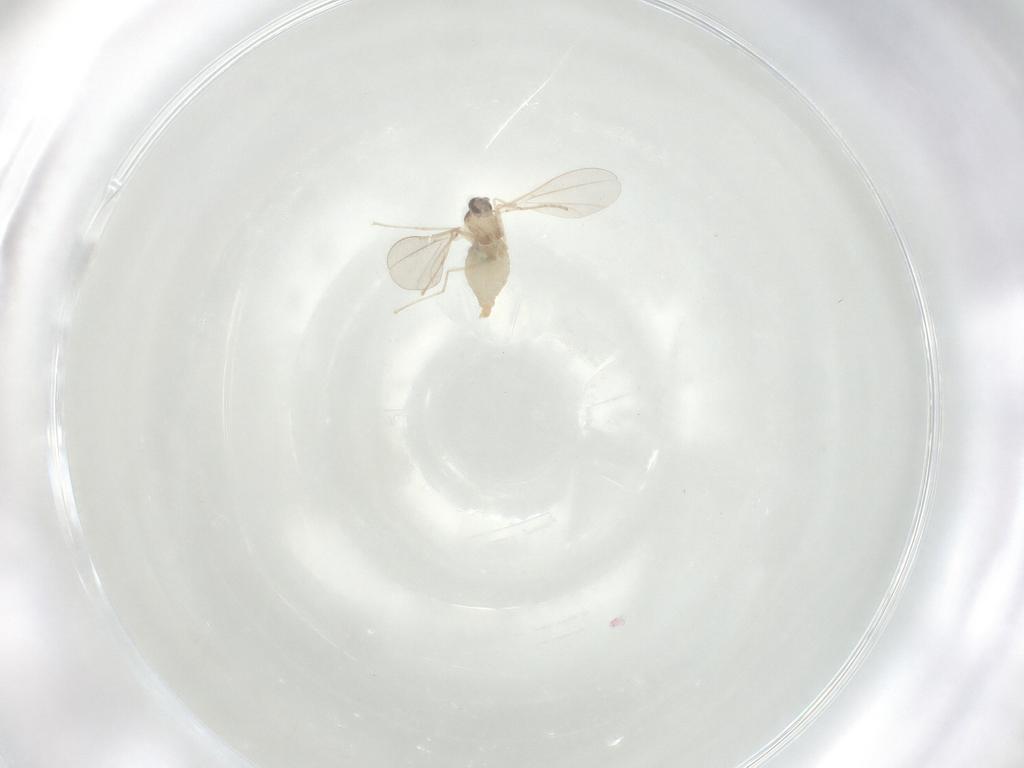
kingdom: Animalia
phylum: Arthropoda
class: Insecta
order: Diptera
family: Cecidomyiidae
